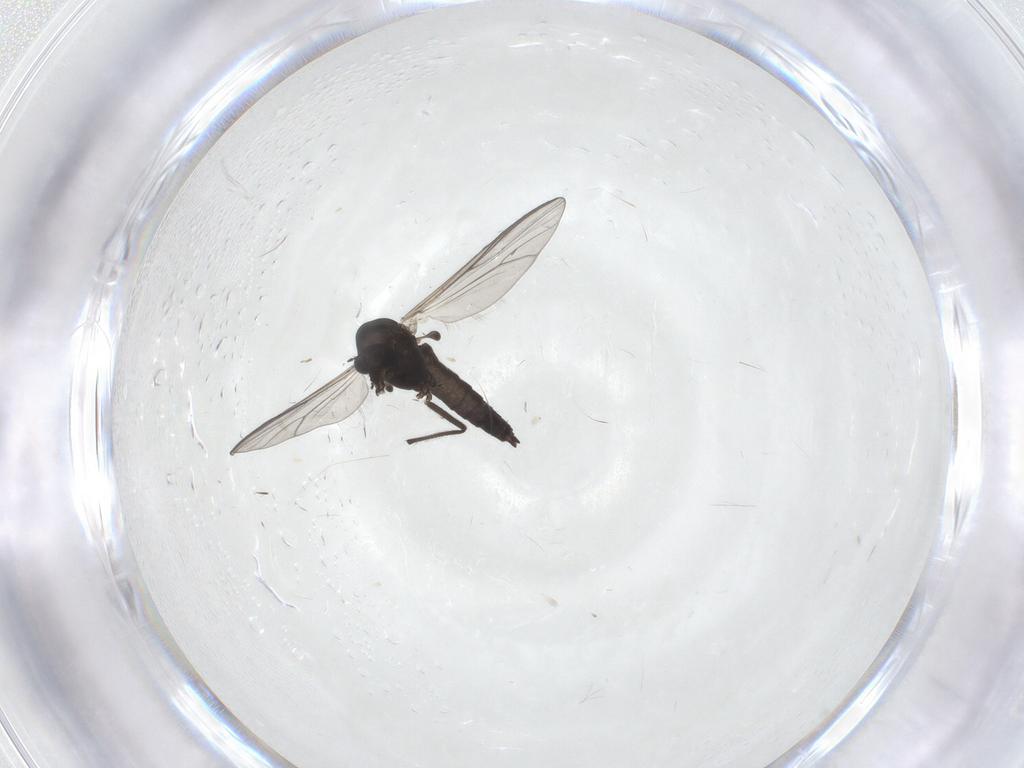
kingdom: Animalia
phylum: Arthropoda
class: Insecta
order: Diptera
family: Chironomidae
